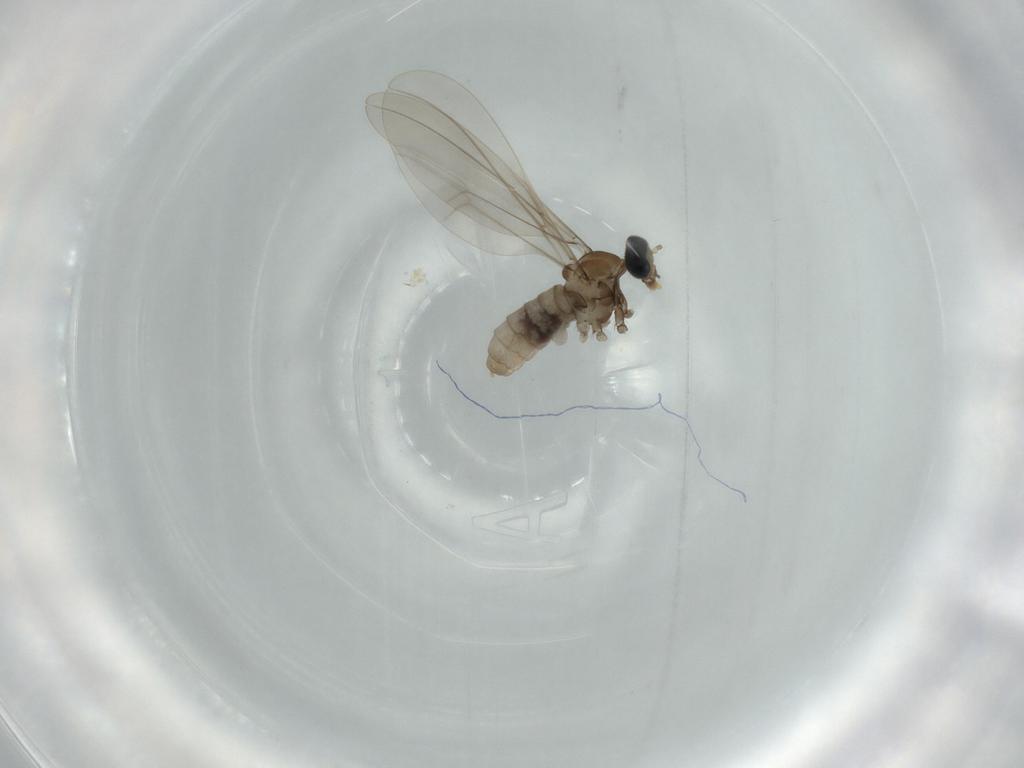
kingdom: Animalia
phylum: Arthropoda
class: Insecta
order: Diptera
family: Cecidomyiidae
